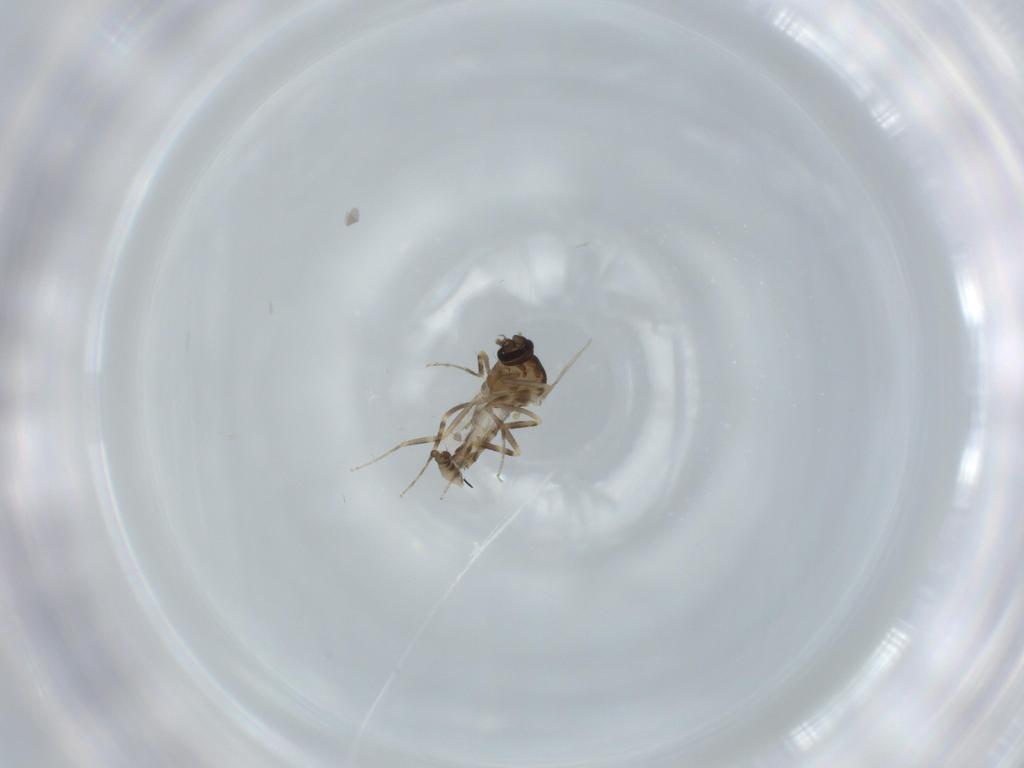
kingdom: Animalia
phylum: Arthropoda
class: Insecta
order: Diptera
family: Ceratopogonidae
